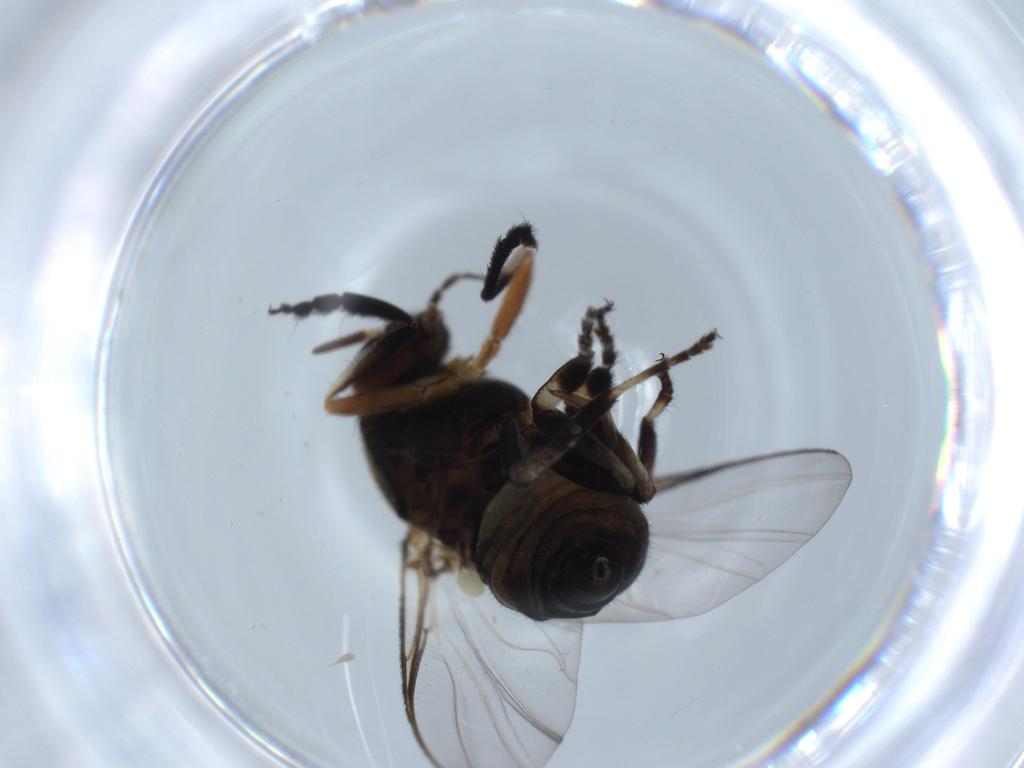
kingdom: Animalia
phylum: Arthropoda
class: Insecta
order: Diptera
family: Agromyzidae
